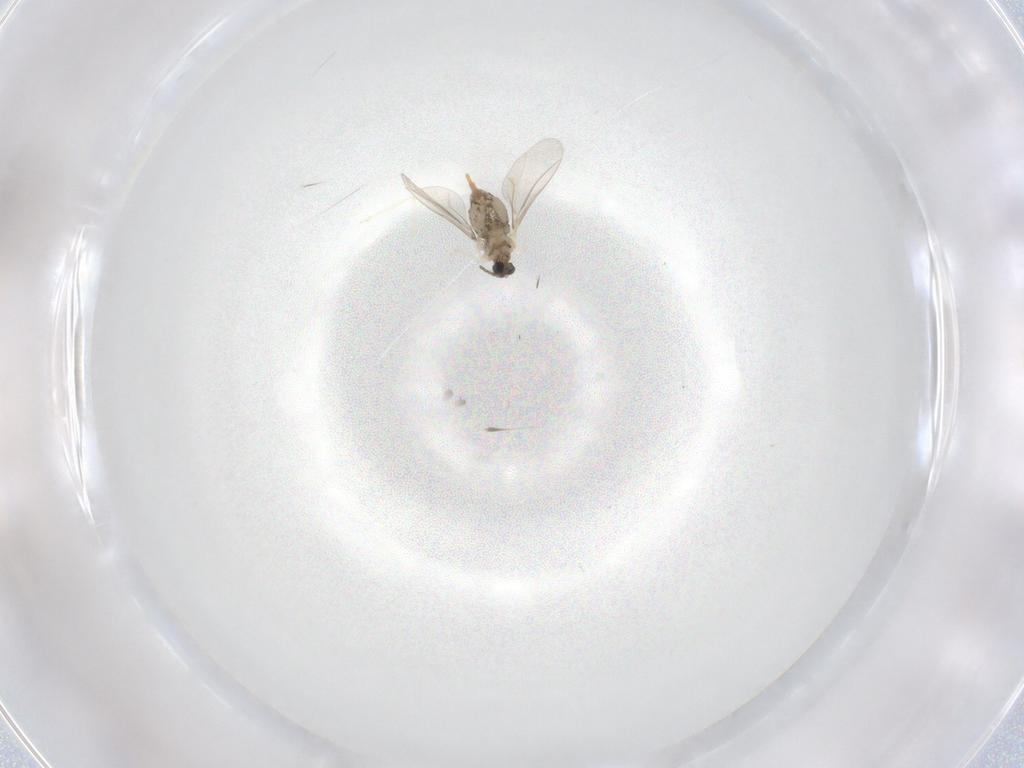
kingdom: Animalia
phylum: Arthropoda
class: Insecta
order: Diptera
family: Cecidomyiidae
